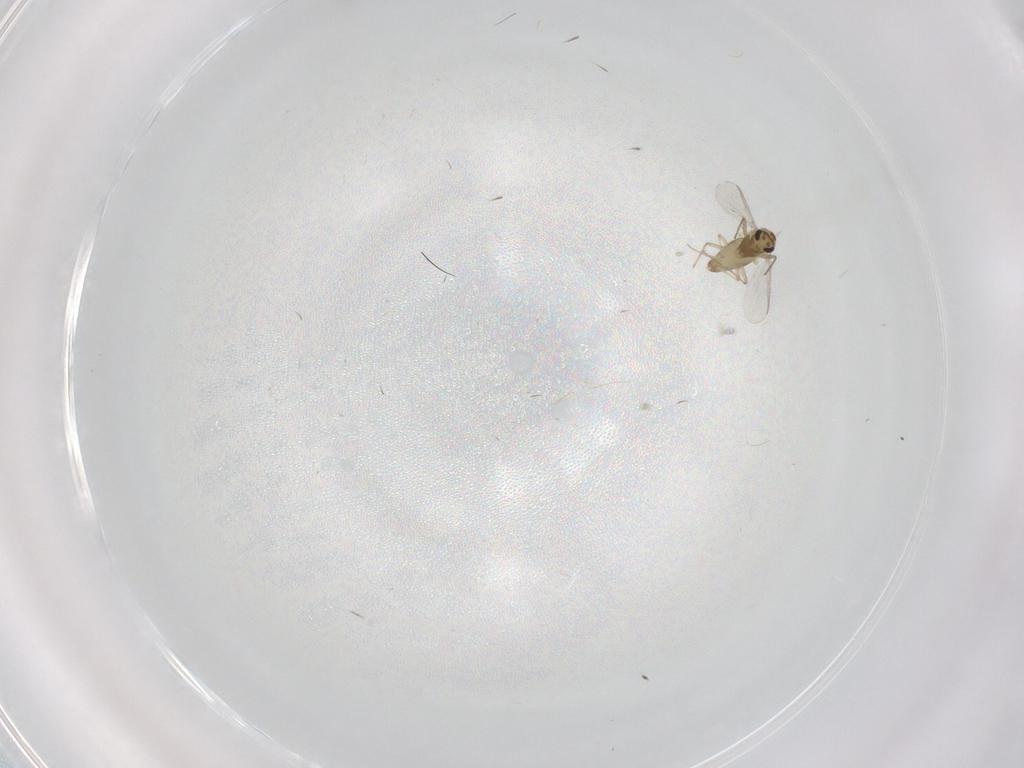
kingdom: Animalia
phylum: Arthropoda
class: Insecta
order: Diptera
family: Chironomidae
